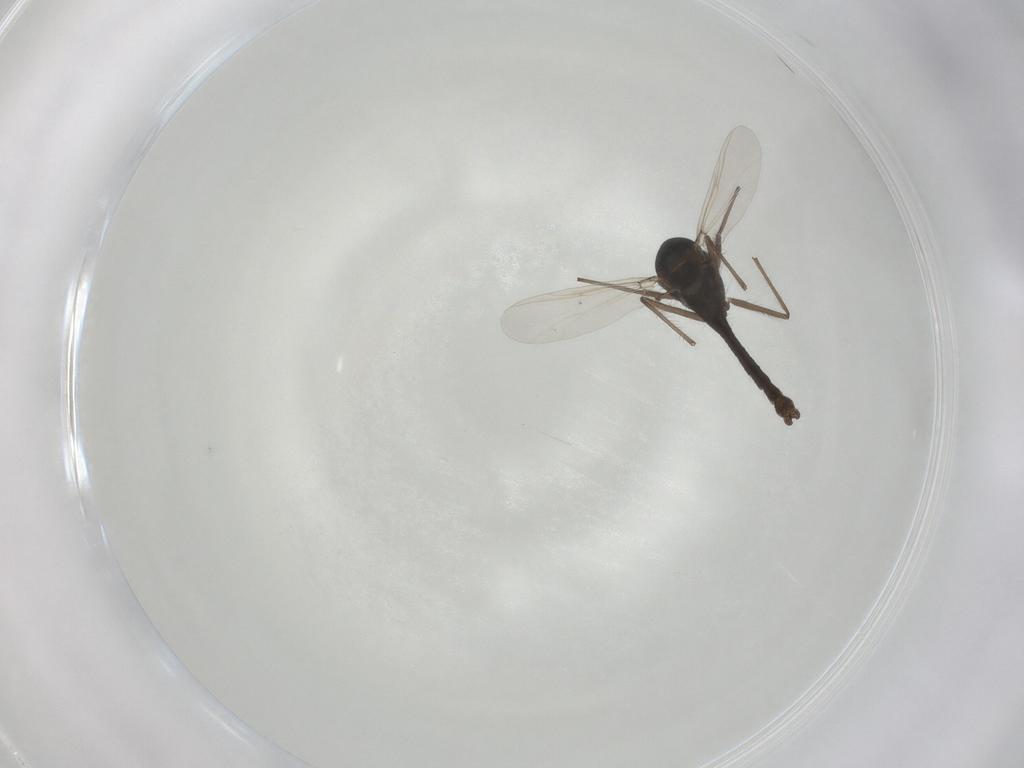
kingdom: Animalia
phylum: Arthropoda
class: Insecta
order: Diptera
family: Chironomidae
